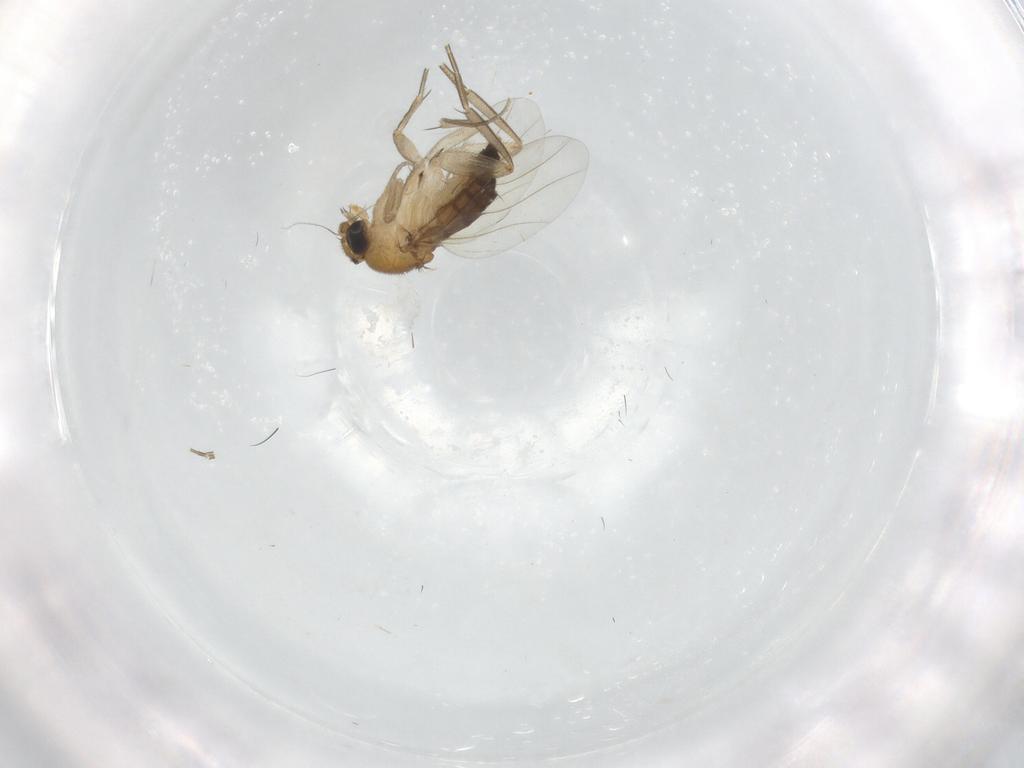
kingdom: Animalia
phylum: Arthropoda
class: Insecta
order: Diptera
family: Phoridae
